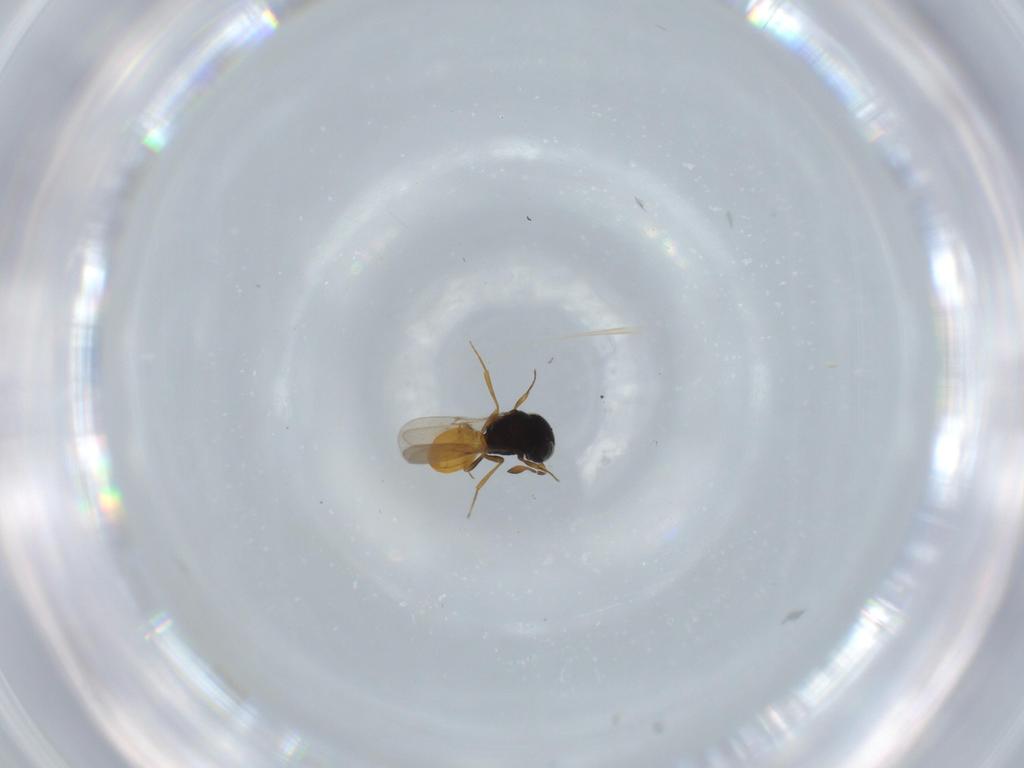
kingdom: Animalia
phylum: Arthropoda
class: Insecta
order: Hymenoptera
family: Scelionidae
